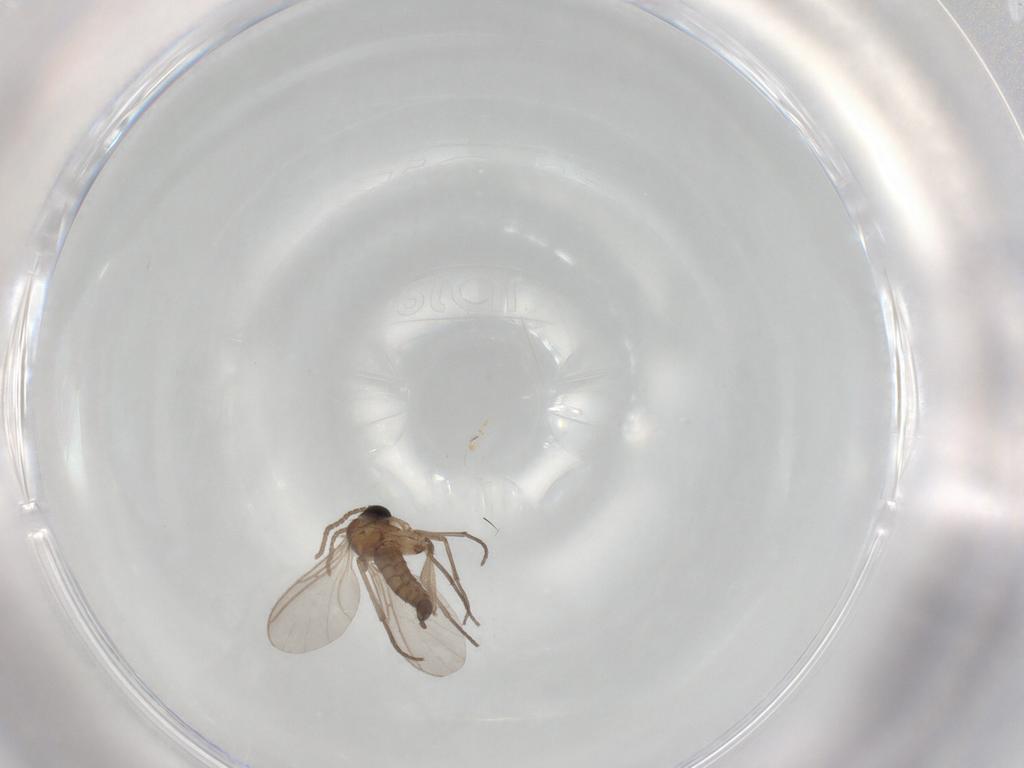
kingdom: Animalia
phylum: Arthropoda
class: Insecta
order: Diptera
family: Sciaridae
